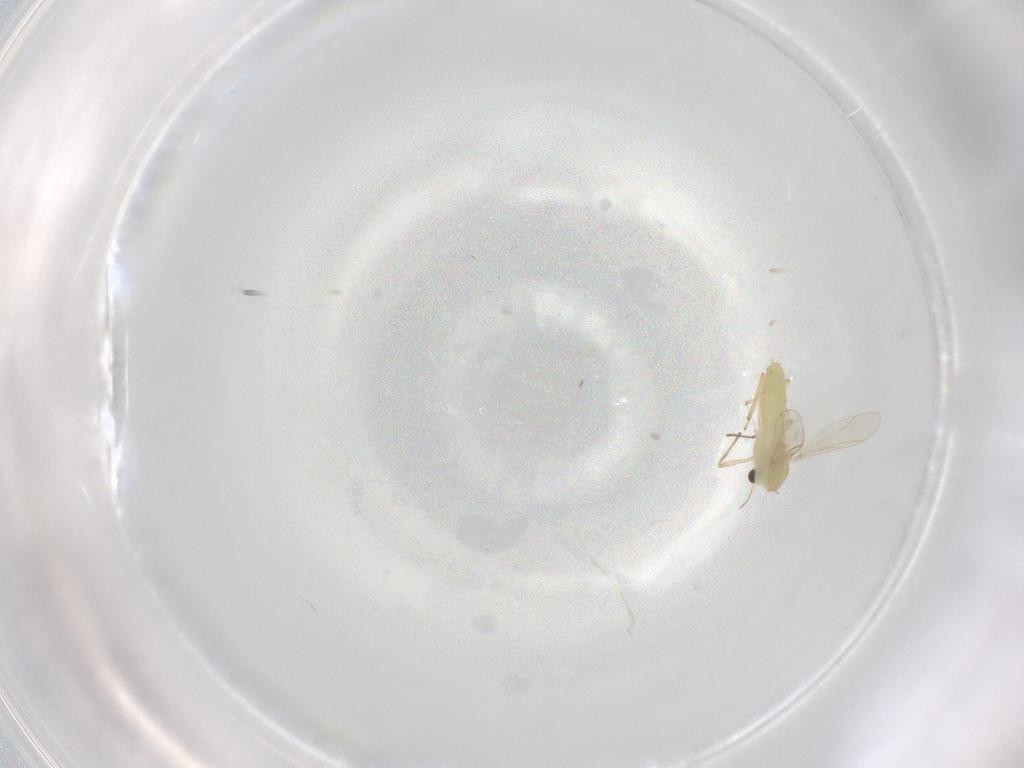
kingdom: Animalia
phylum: Arthropoda
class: Insecta
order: Diptera
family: Chironomidae
